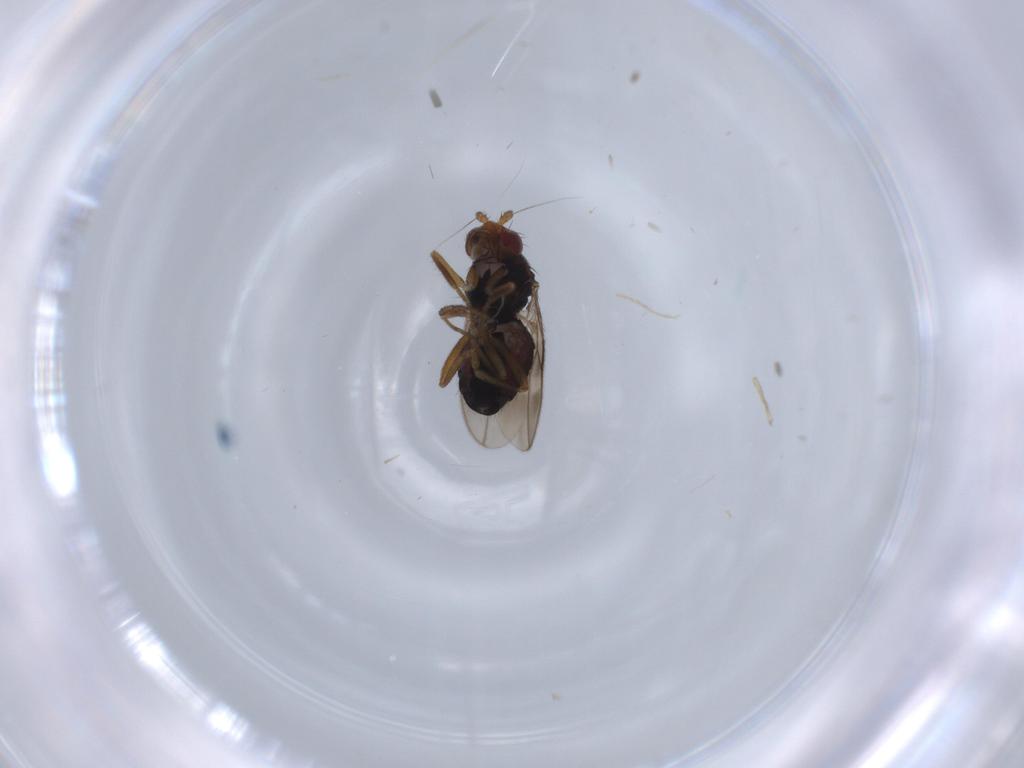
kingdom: Animalia
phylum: Arthropoda
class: Insecta
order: Diptera
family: Sphaeroceridae
